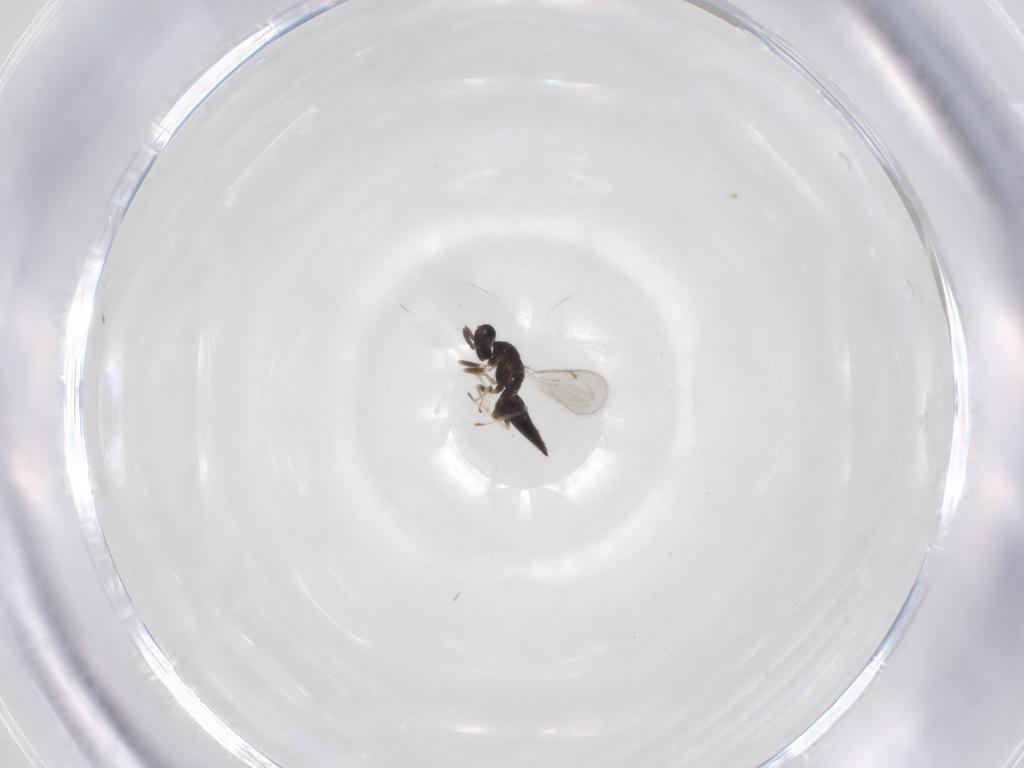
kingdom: Animalia
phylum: Arthropoda
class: Insecta
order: Hymenoptera
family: Eulophidae
